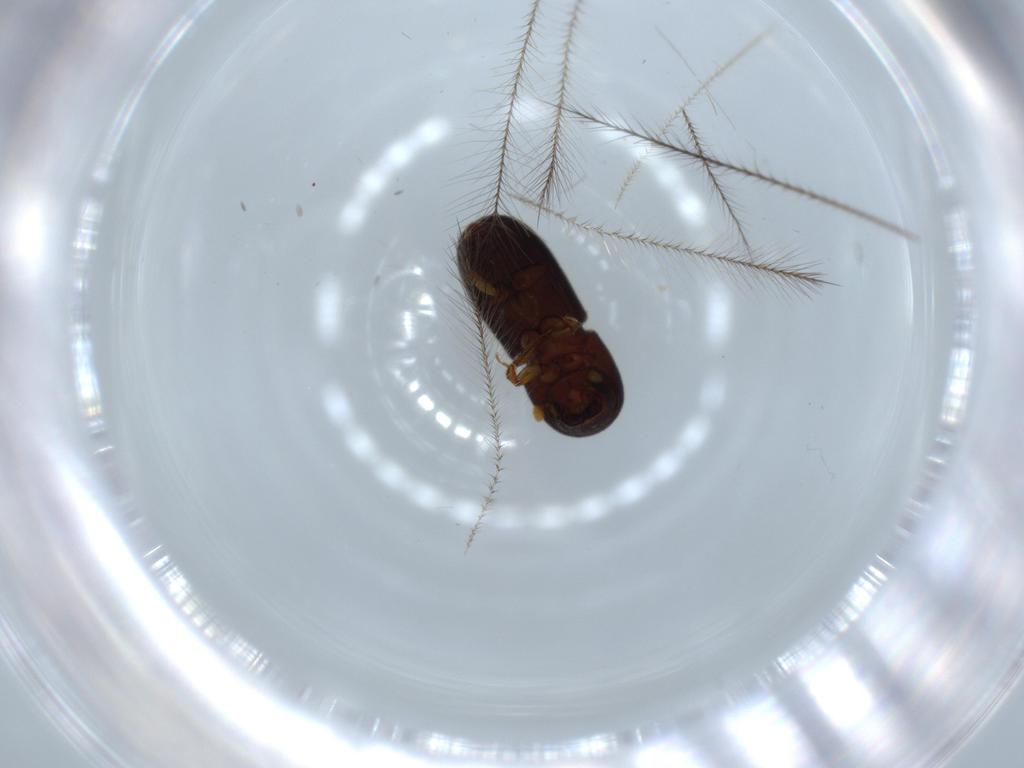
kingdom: Animalia
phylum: Arthropoda
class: Insecta
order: Coleoptera
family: Curculionidae
